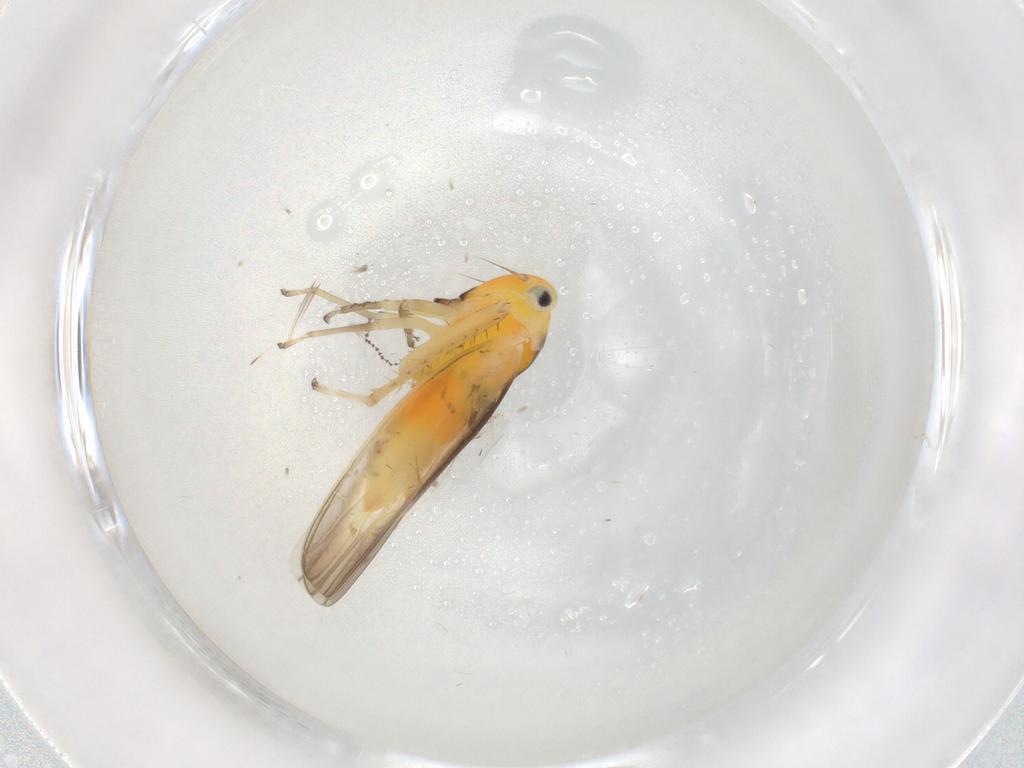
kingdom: Animalia
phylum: Arthropoda
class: Insecta
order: Hemiptera
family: Cicadellidae
